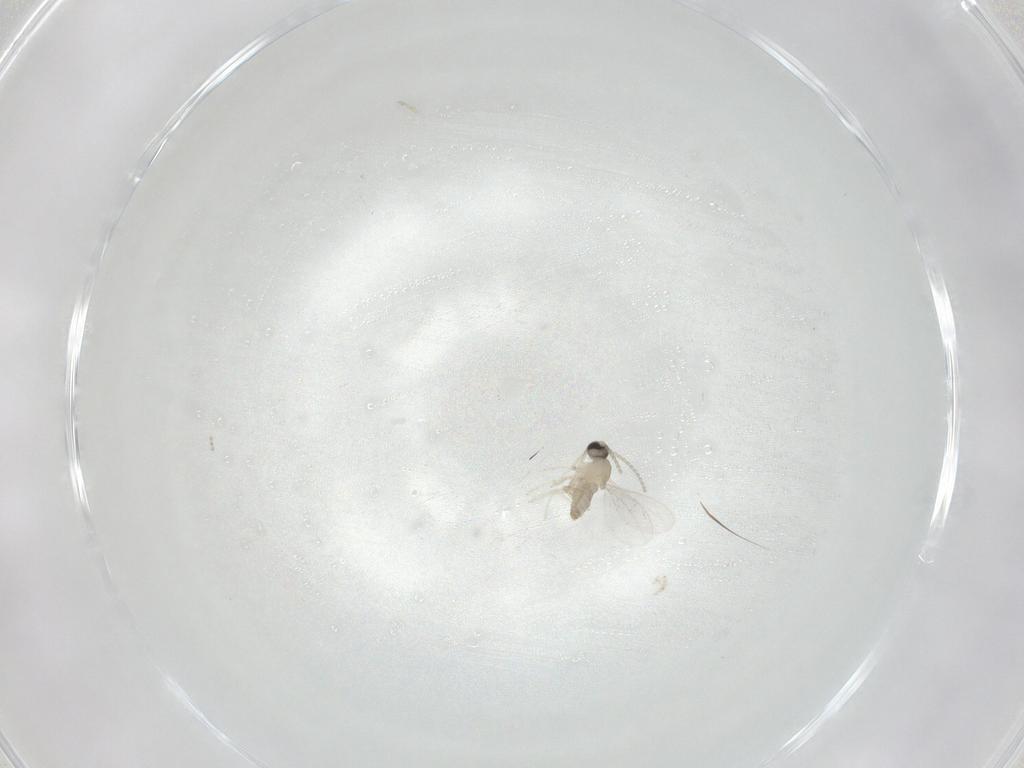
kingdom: Animalia
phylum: Arthropoda
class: Insecta
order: Diptera
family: Cecidomyiidae
